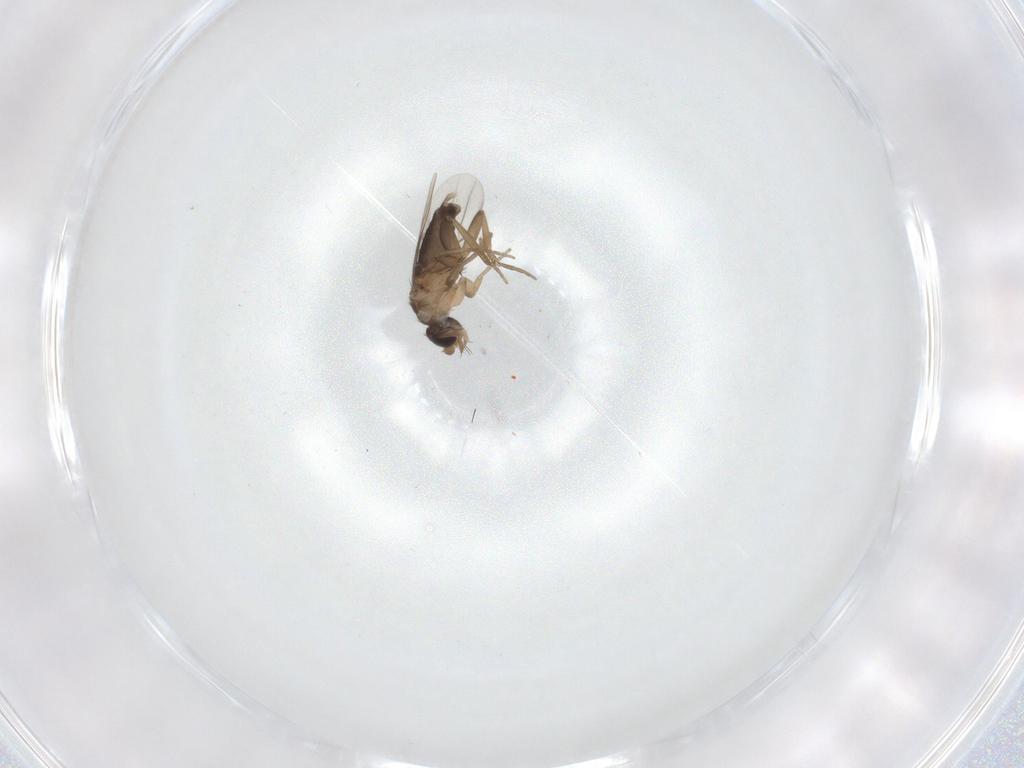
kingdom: Animalia
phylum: Arthropoda
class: Insecta
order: Diptera
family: Phoridae
